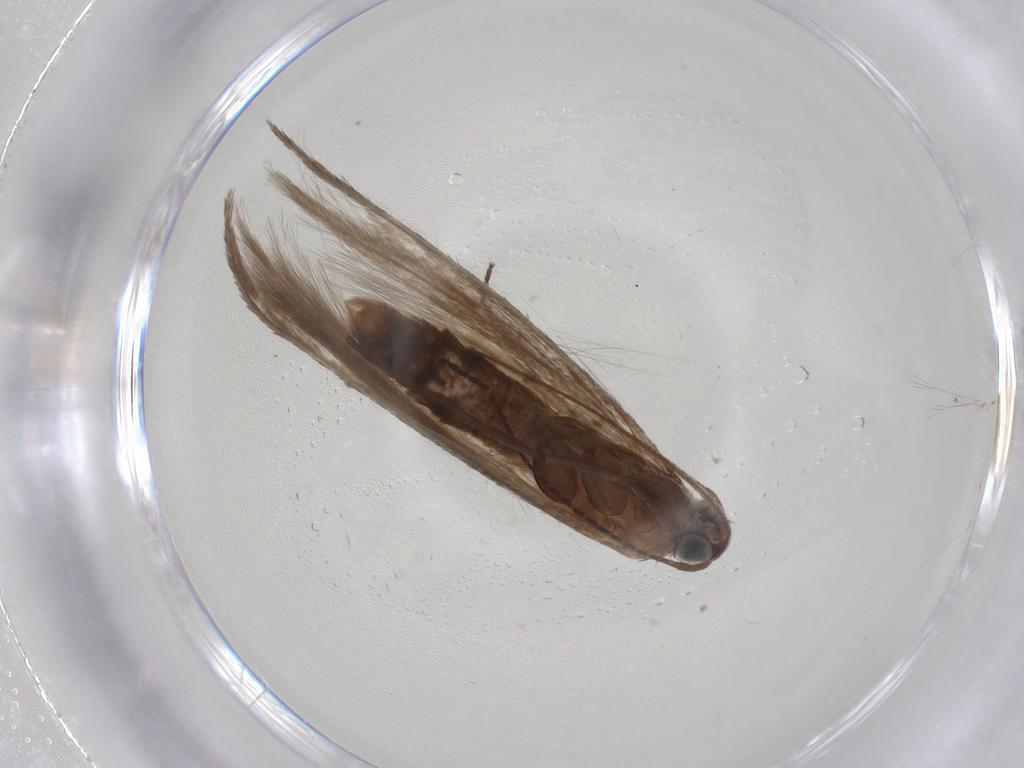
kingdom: Animalia
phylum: Arthropoda
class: Insecta
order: Lepidoptera
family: Gelechiidae
